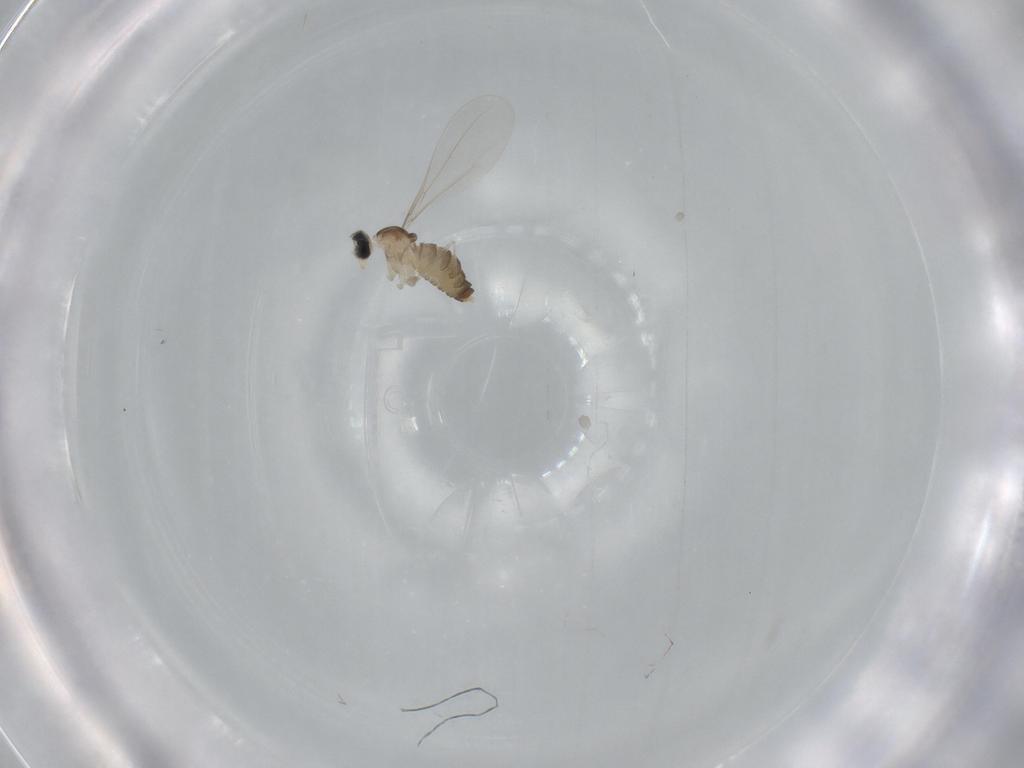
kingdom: Animalia
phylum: Arthropoda
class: Insecta
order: Diptera
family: Cecidomyiidae
